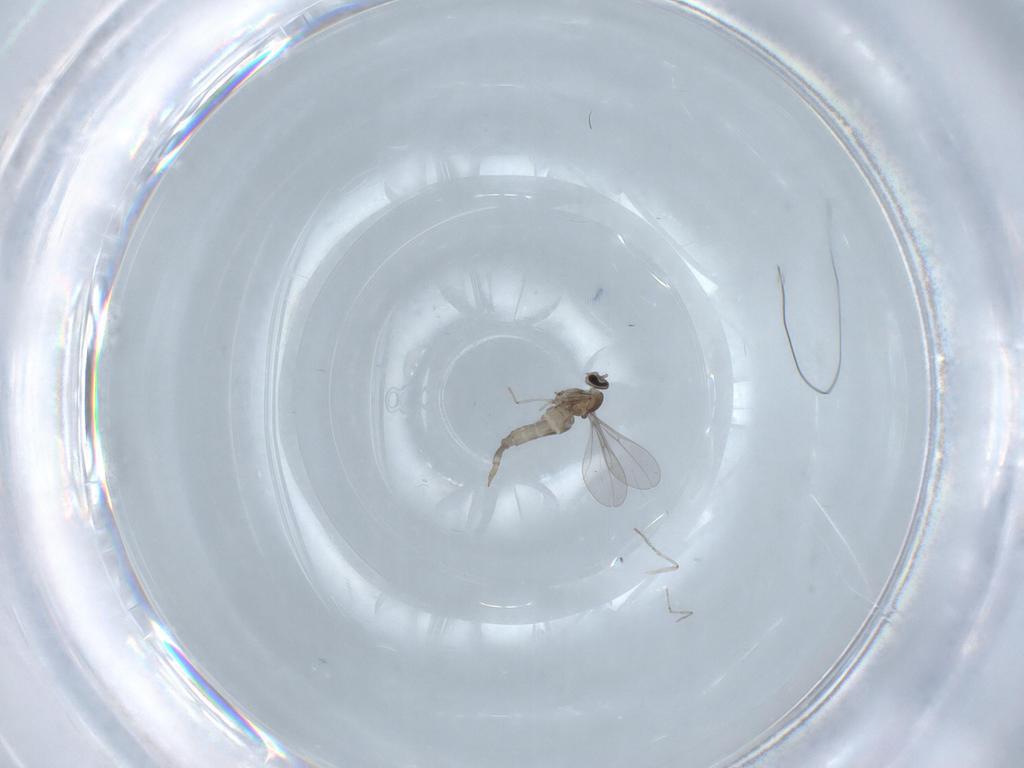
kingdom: Animalia
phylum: Arthropoda
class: Insecta
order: Diptera
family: Cecidomyiidae
